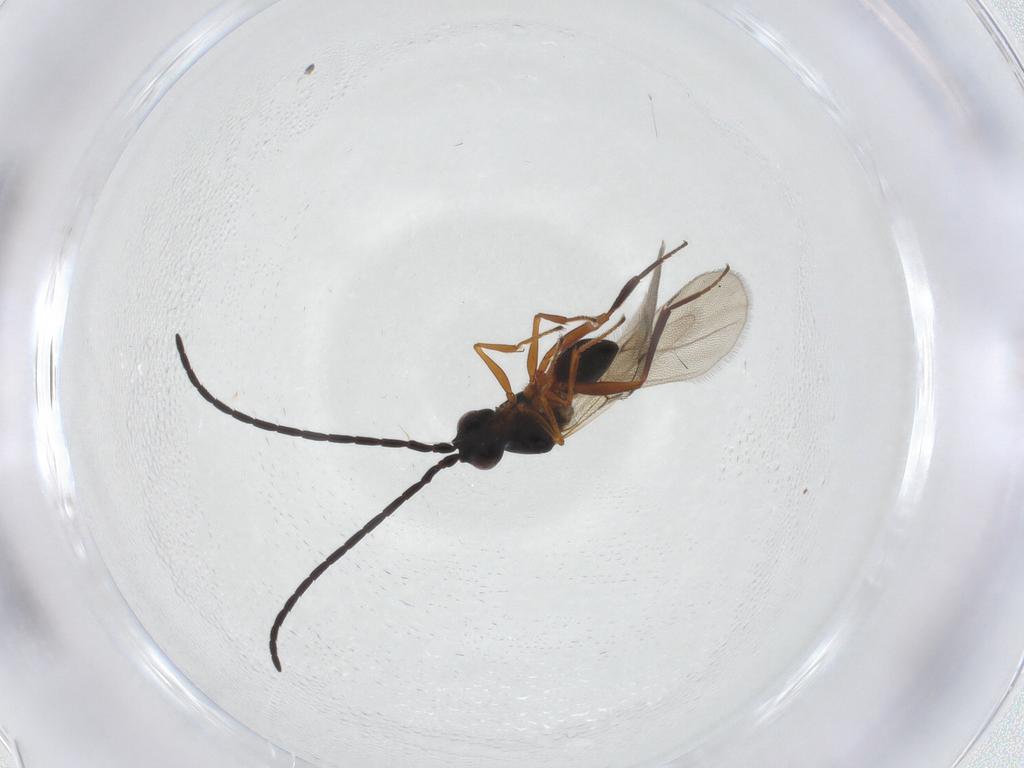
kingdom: Animalia
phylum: Arthropoda
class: Insecta
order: Hymenoptera
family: Figitidae
